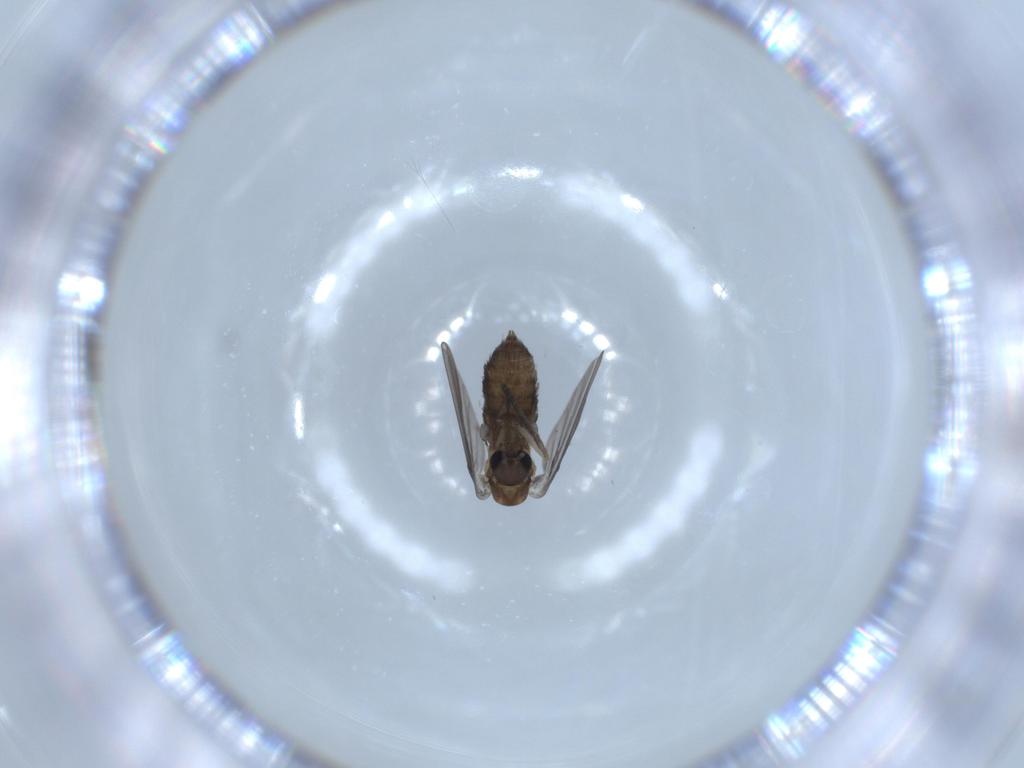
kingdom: Animalia
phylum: Arthropoda
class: Insecta
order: Diptera
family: Psychodidae
